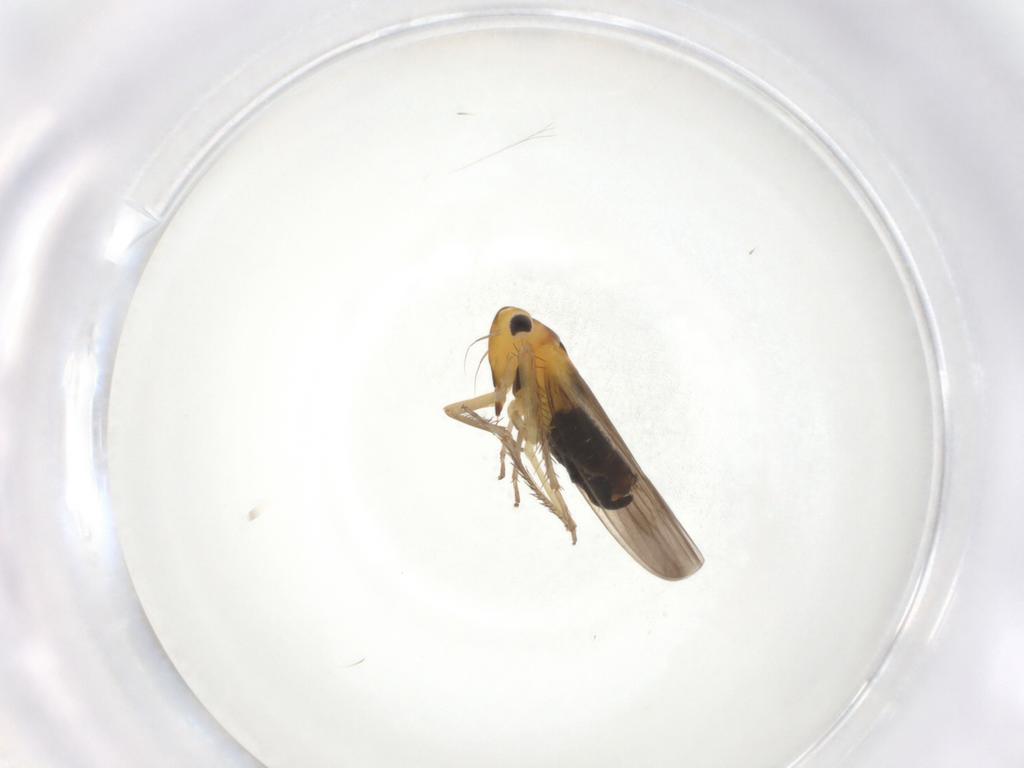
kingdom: Animalia
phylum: Arthropoda
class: Insecta
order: Hemiptera
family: Cicadellidae
